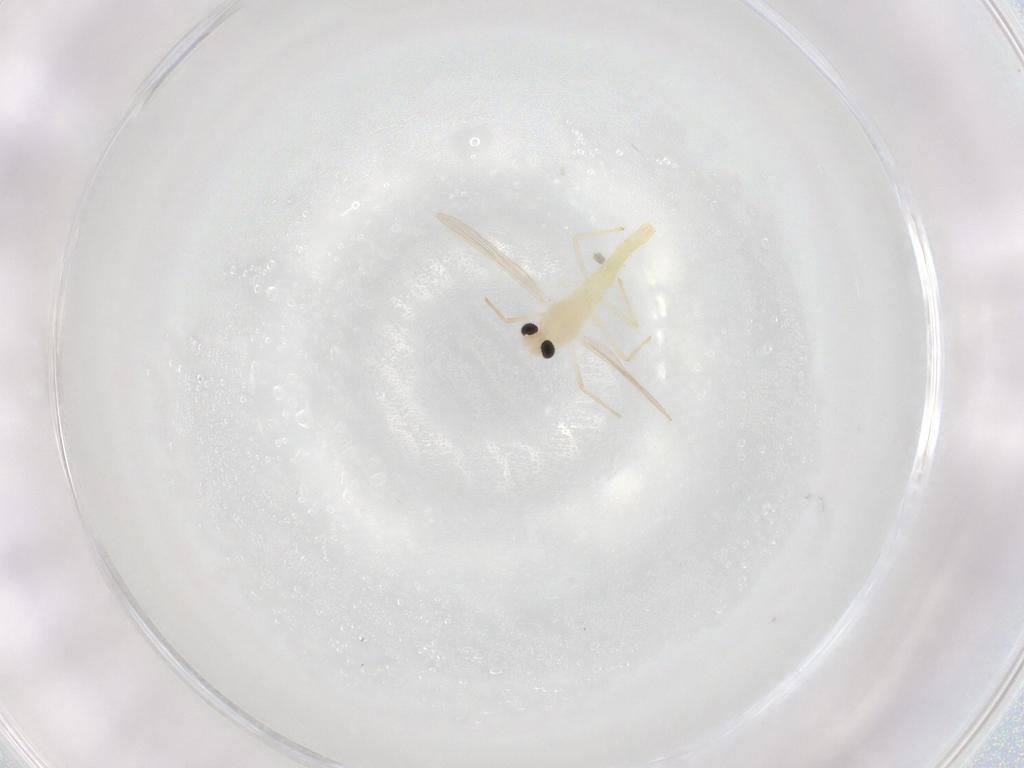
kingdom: Animalia
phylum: Arthropoda
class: Insecta
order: Diptera
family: Chironomidae
